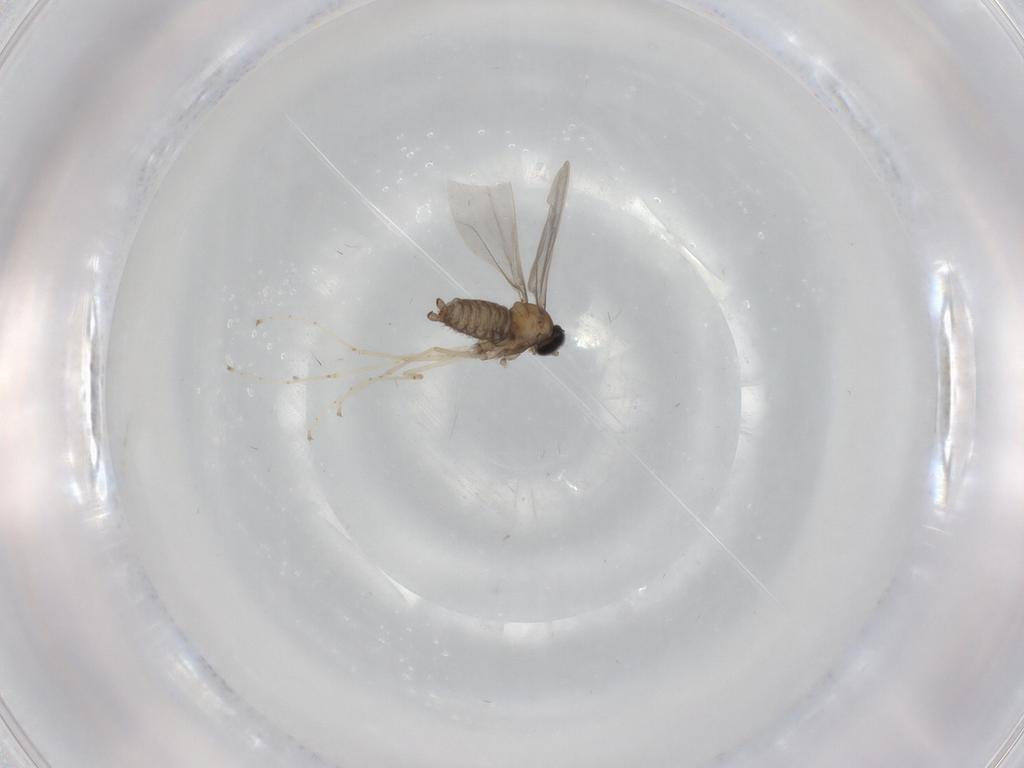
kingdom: Animalia
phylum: Arthropoda
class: Insecta
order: Diptera
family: Cecidomyiidae
